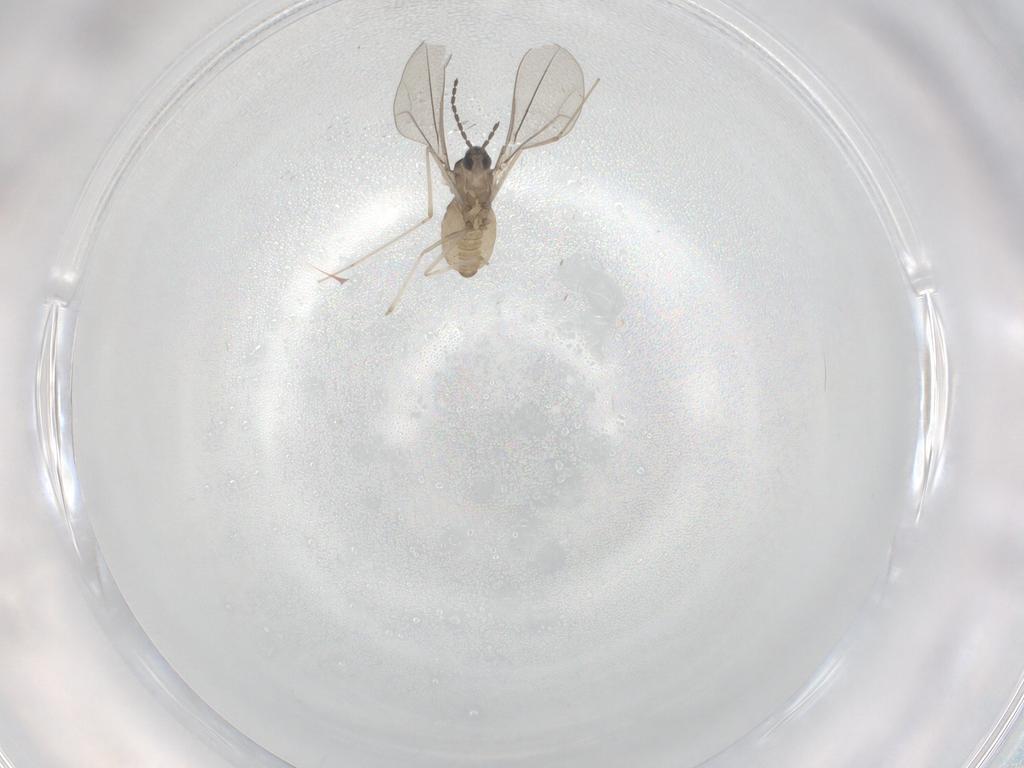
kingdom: Animalia
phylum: Arthropoda
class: Insecta
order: Diptera
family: Cecidomyiidae
